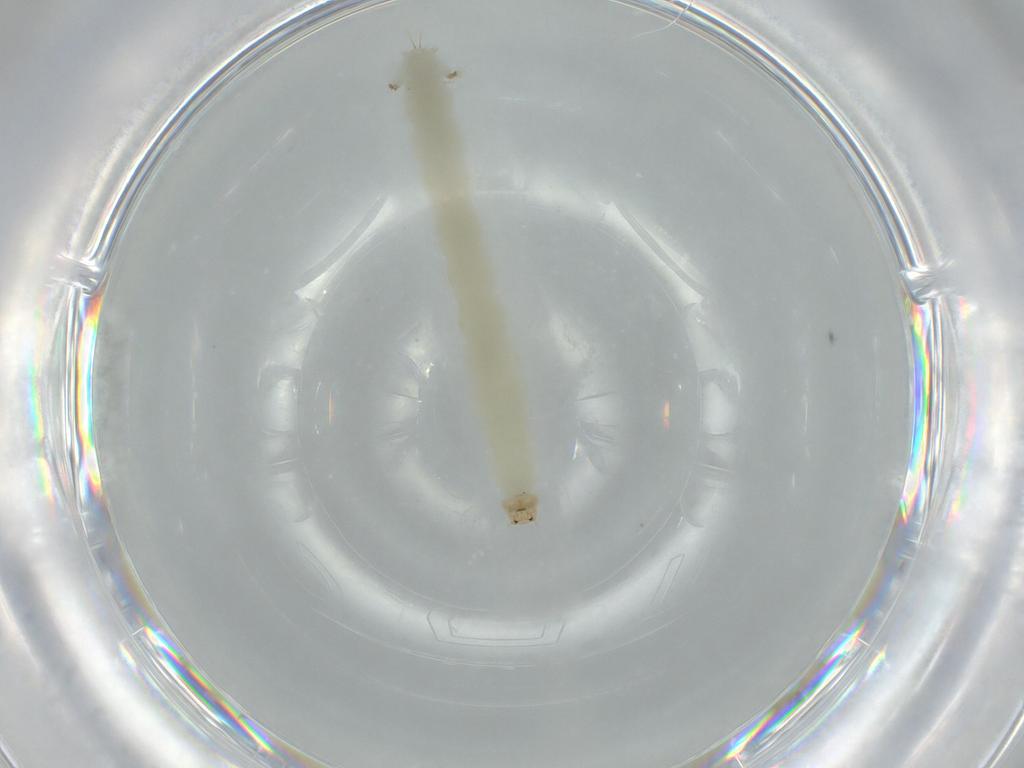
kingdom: Animalia
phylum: Arthropoda
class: Insecta
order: Diptera
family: Chironomidae
